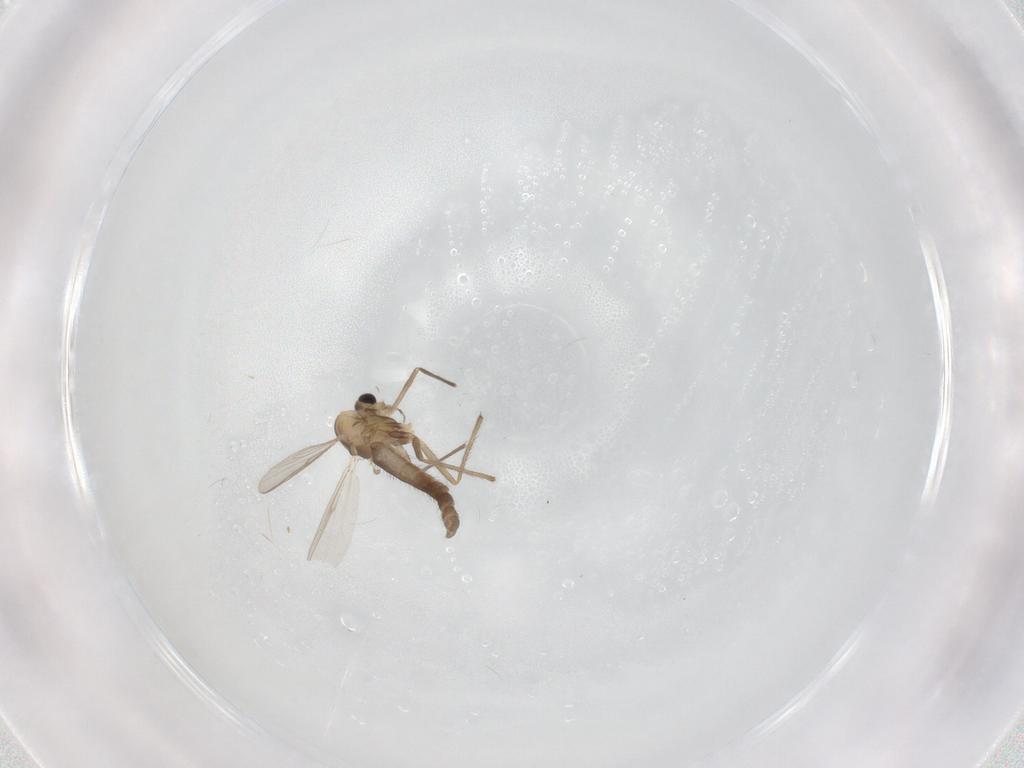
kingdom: Animalia
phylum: Arthropoda
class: Insecta
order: Diptera
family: Chironomidae
